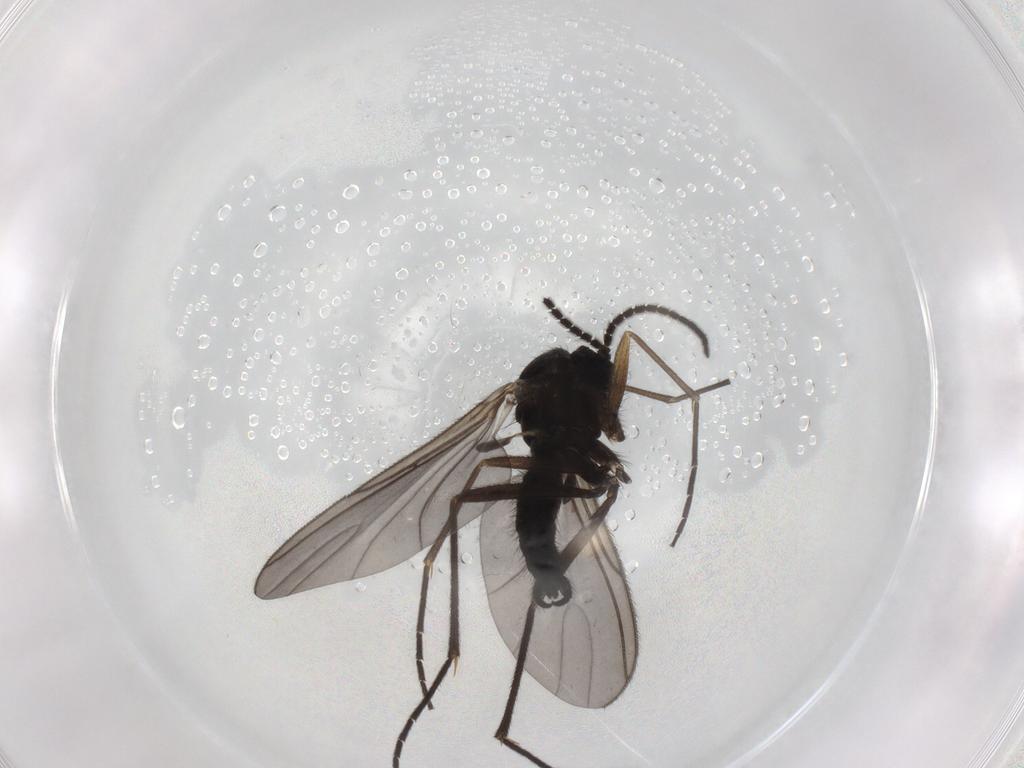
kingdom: Animalia
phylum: Arthropoda
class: Insecta
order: Diptera
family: Sciaridae
